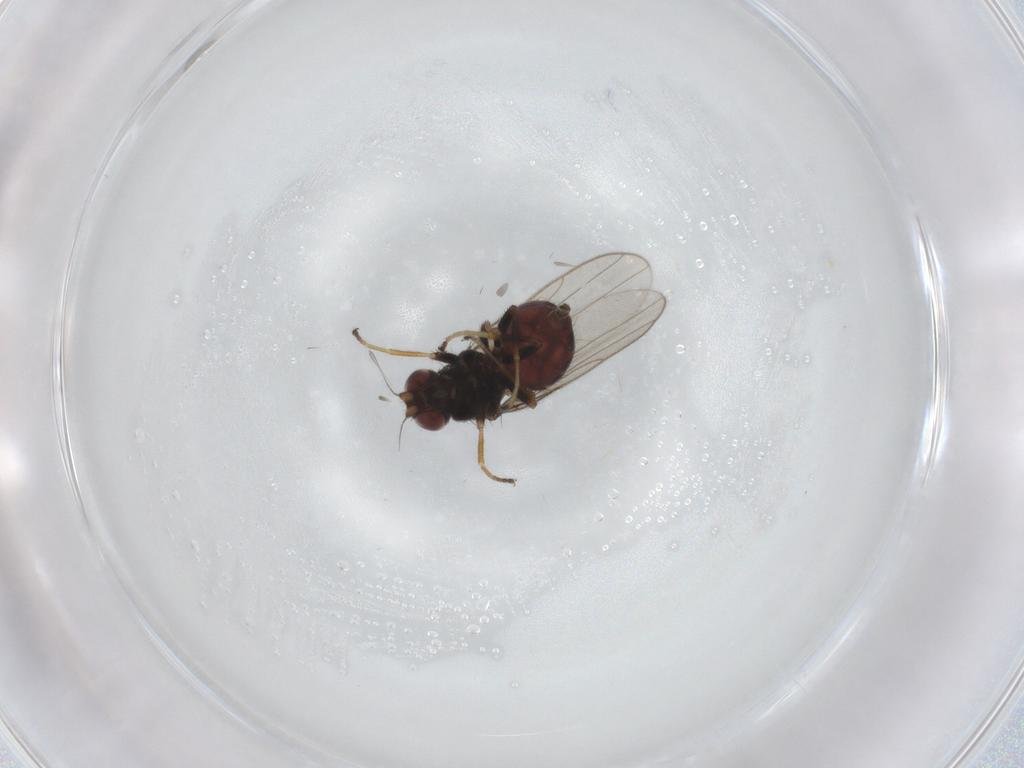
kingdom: Animalia
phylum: Arthropoda
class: Insecta
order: Diptera
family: Chloropidae
